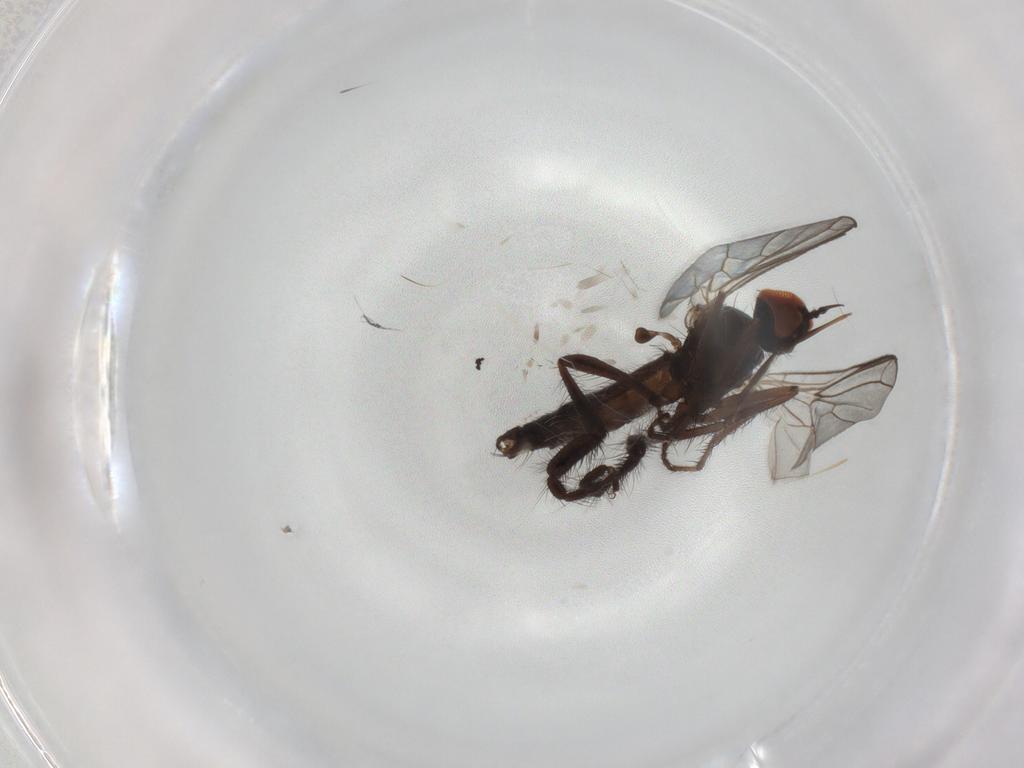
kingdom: Animalia
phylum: Arthropoda
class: Insecta
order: Diptera
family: Empididae
